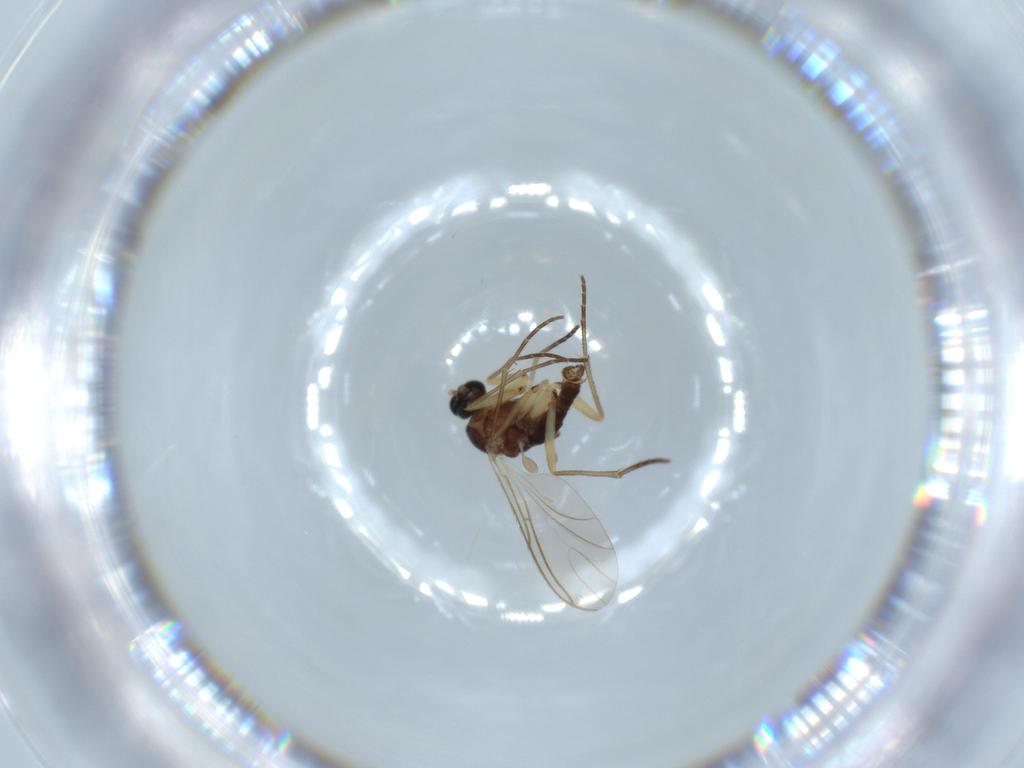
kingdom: Animalia
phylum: Arthropoda
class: Insecta
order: Diptera
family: Sciaridae
